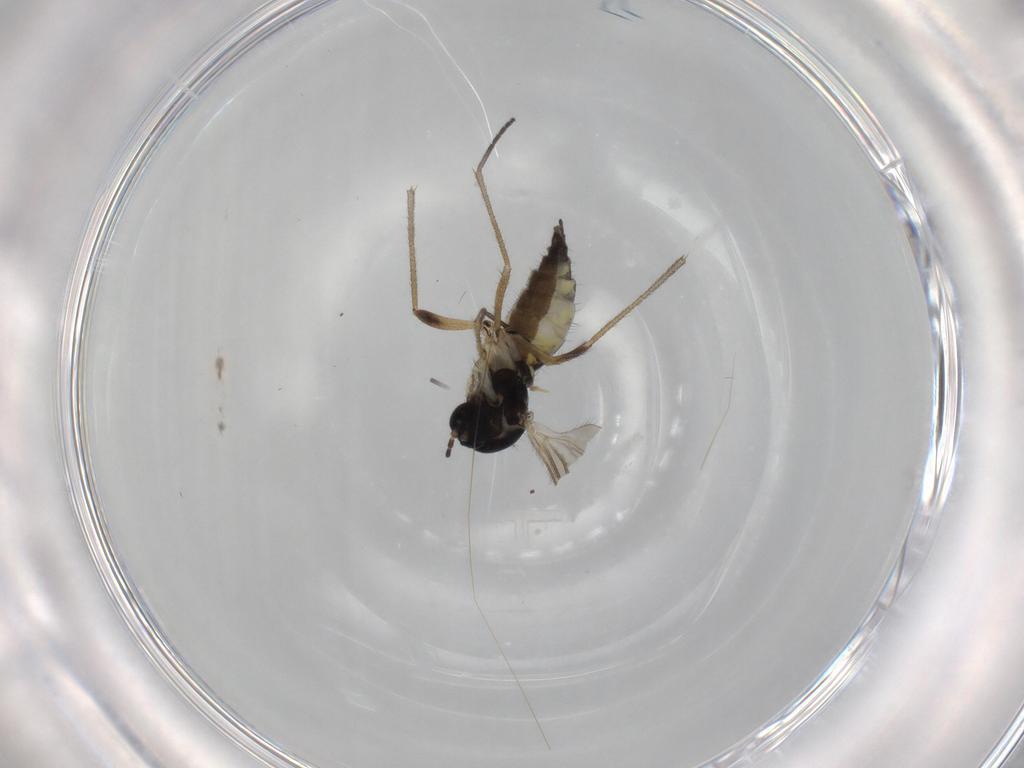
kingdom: Animalia
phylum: Arthropoda
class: Insecta
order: Diptera
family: Sciaridae
